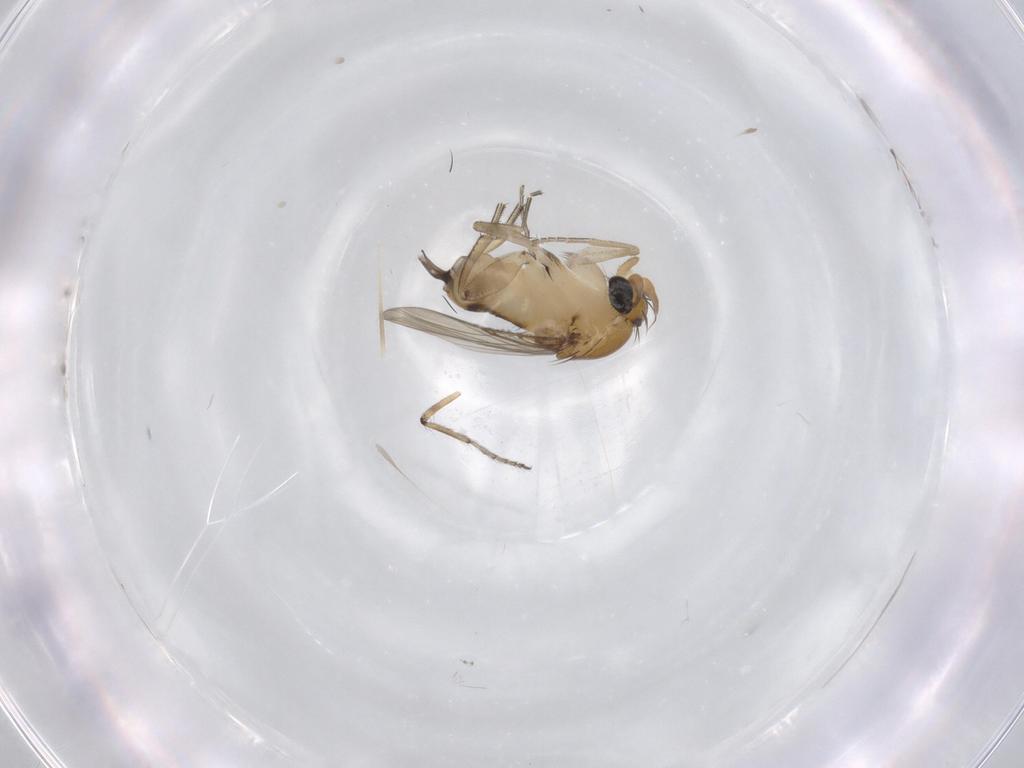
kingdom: Animalia
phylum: Arthropoda
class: Insecta
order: Diptera
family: Phoridae
